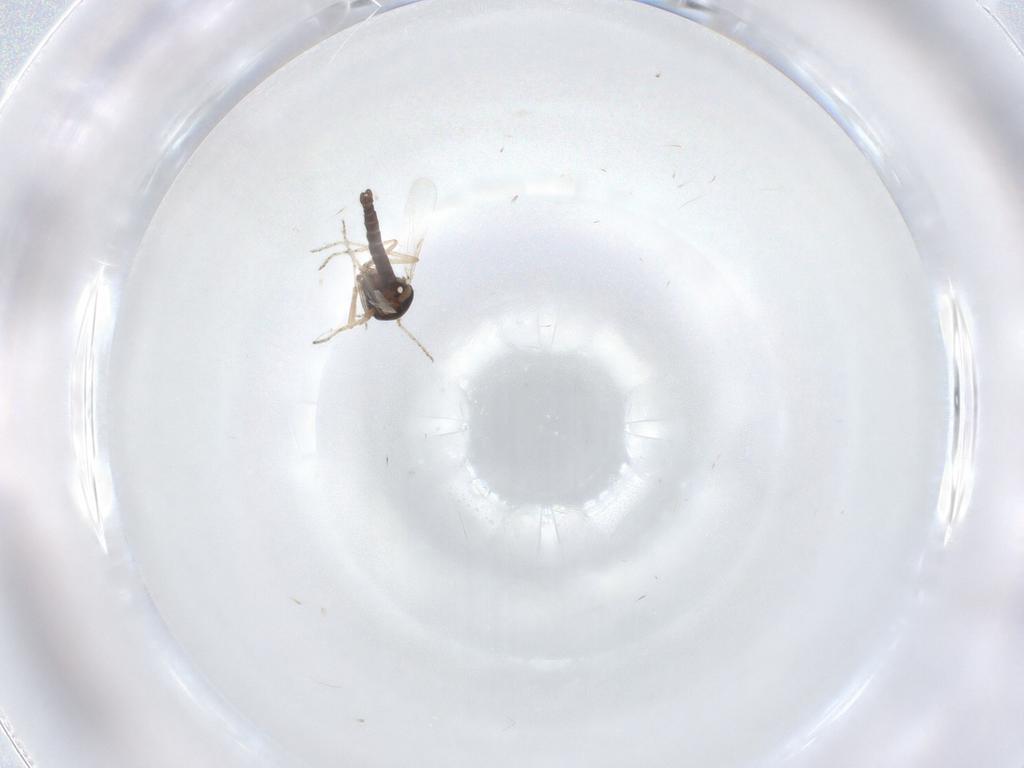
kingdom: Animalia
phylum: Arthropoda
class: Insecta
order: Diptera
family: Ceratopogonidae
